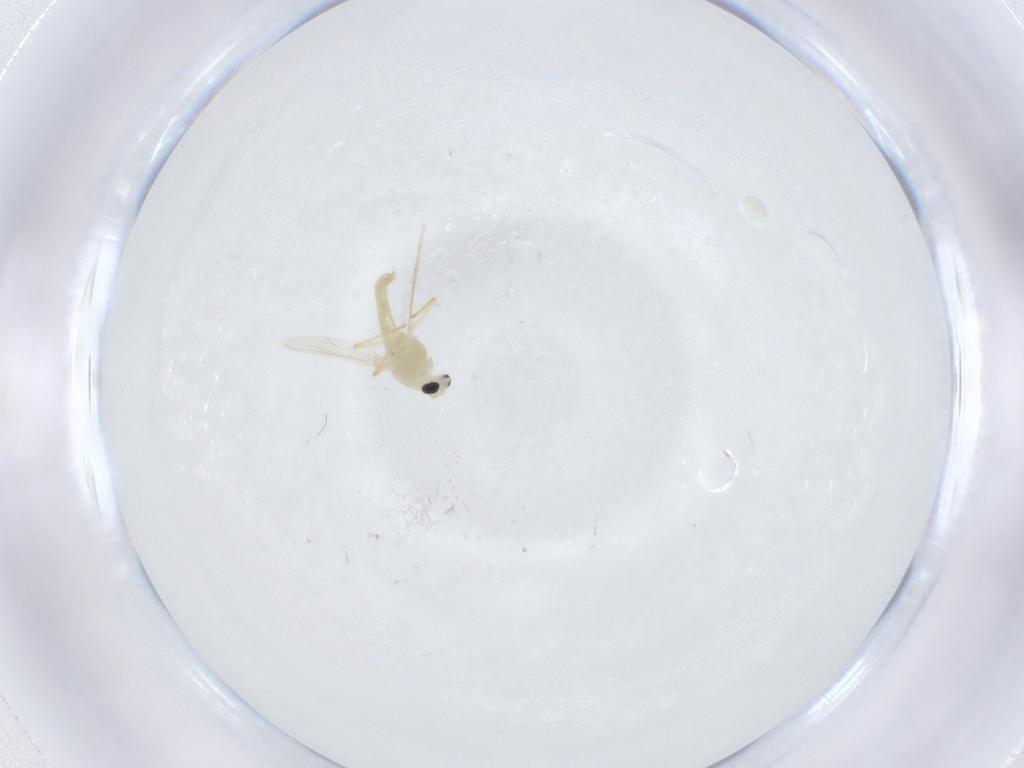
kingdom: Animalia
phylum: Arthropoda
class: Insecta
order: Diptera
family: Chironomidae
